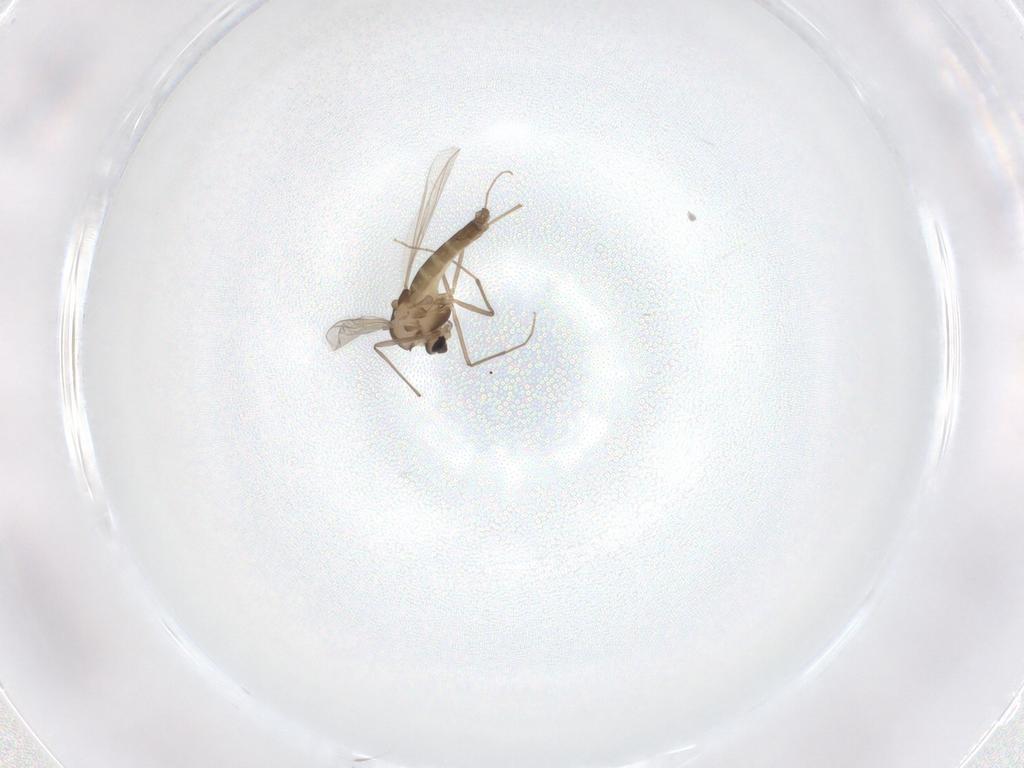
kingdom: Animalia
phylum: Arthropoda
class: Insecta
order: Diptera
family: Chironomidae
